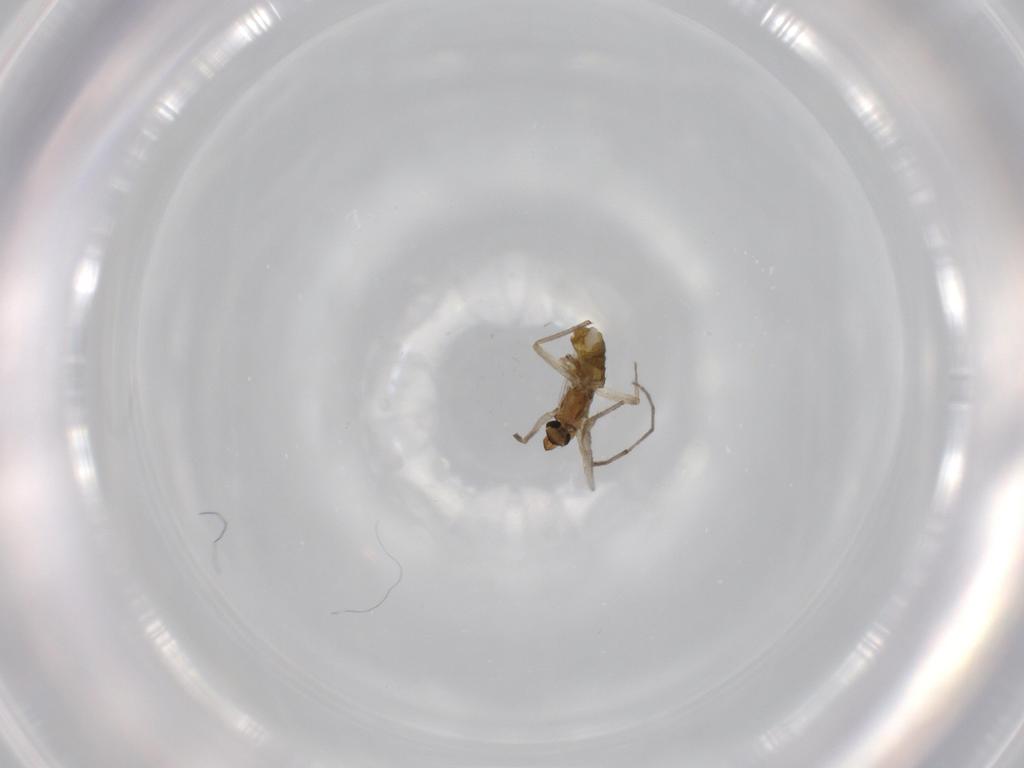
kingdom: Animalia
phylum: Arthropoda
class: Insecta
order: Diptera
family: Chironomidae
